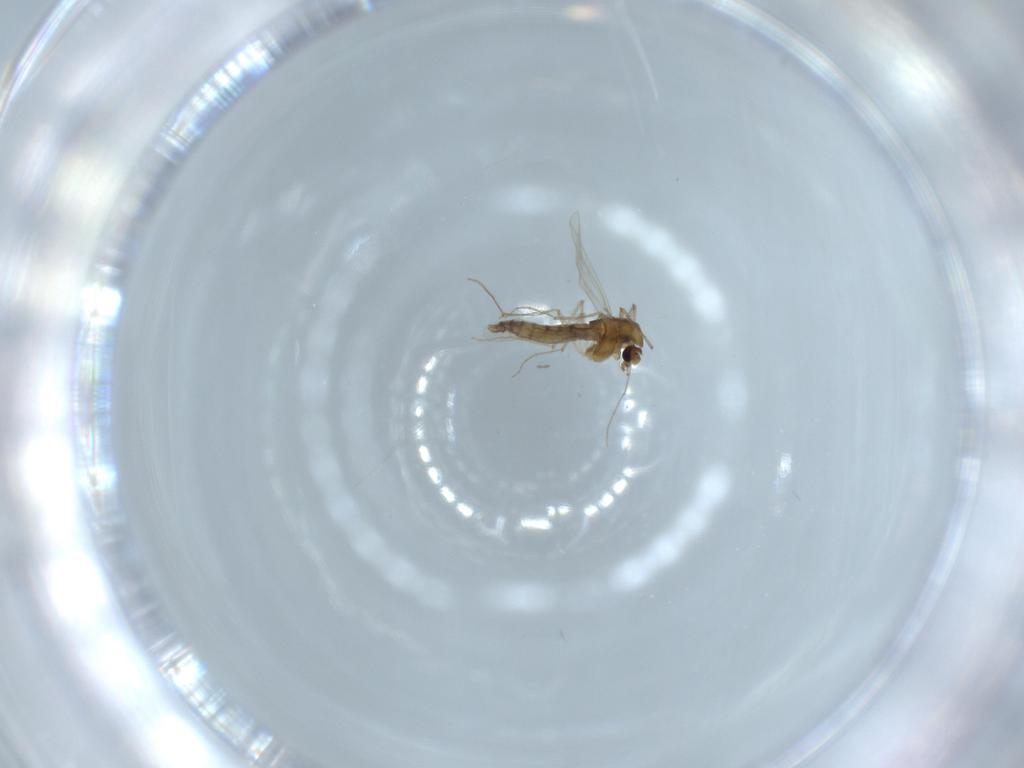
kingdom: Animalia
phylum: Arthropoda
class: Insecta
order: Diptera
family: Chironomidae
